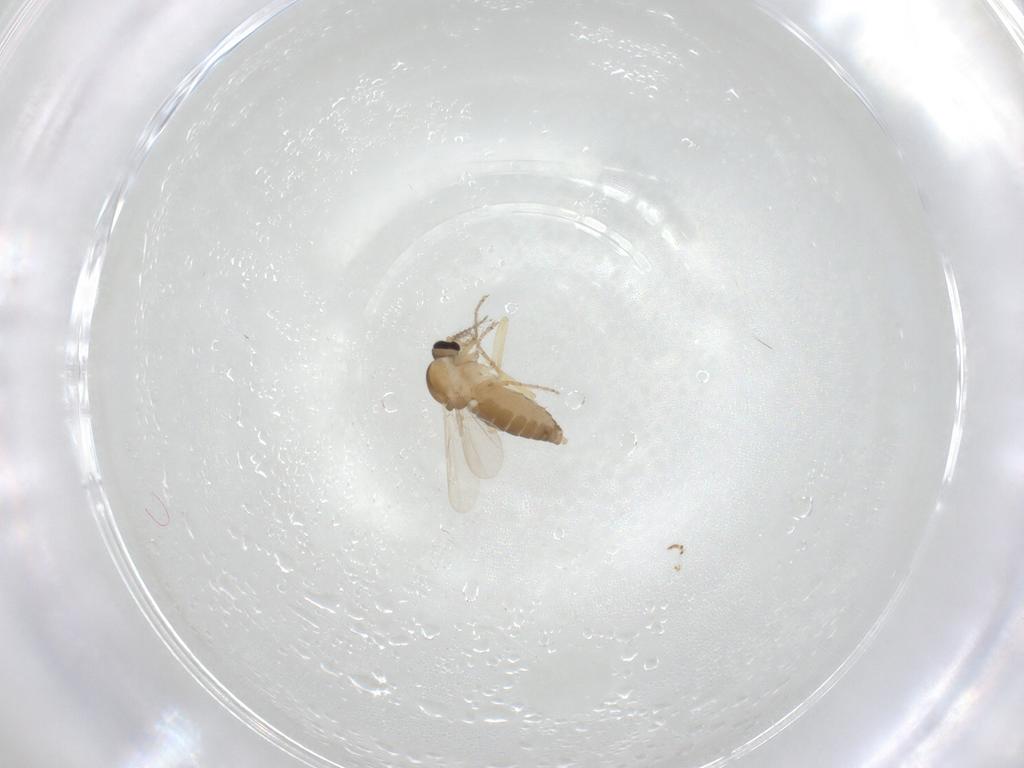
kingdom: Animalia
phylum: Arthropoda
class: Insecta
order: Diptera
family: Ceratopogonidae
